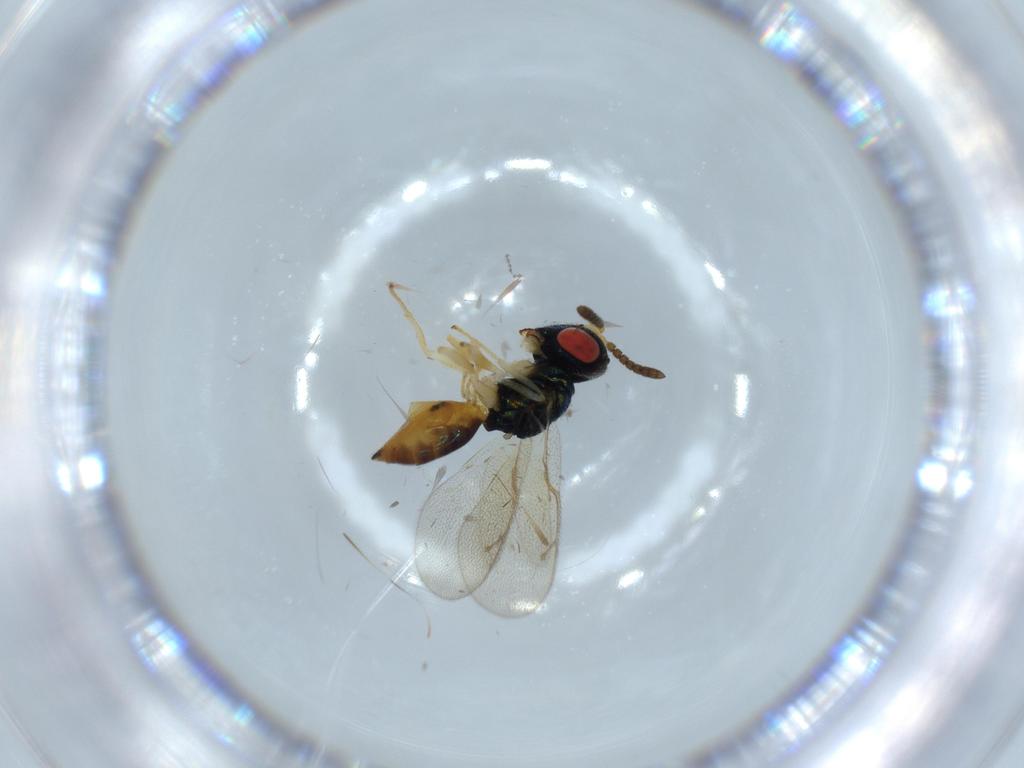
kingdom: Animalia
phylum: Arthropoda
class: Insecta
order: Hymenoptera
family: Pteromalidae
